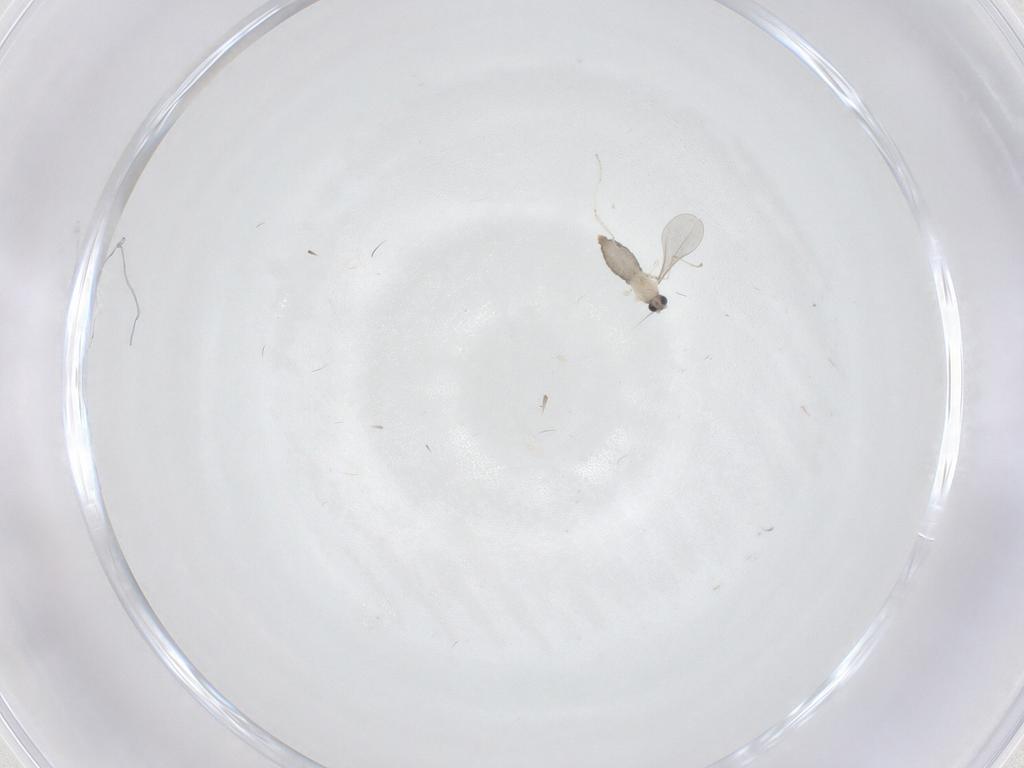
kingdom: Animalia
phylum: Arthropoda
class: Insecta
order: Diptera
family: Cecidomyiidae
